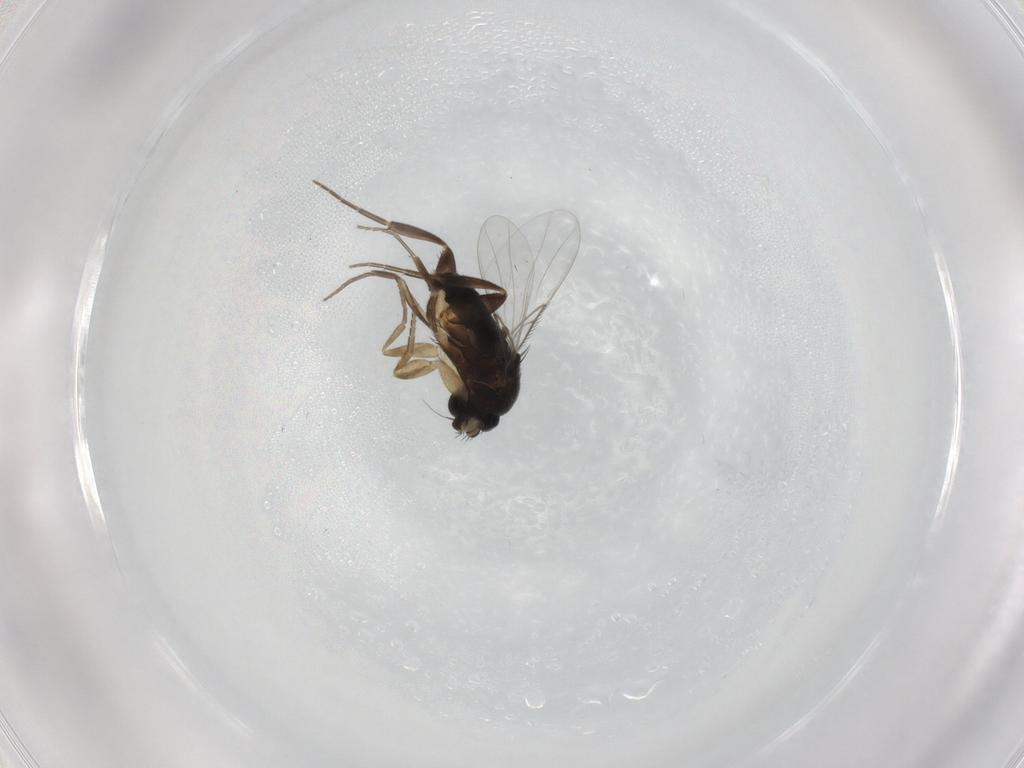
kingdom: Animalia
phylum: Arthropoda
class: Insecta
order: Diptera
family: Phoridae
